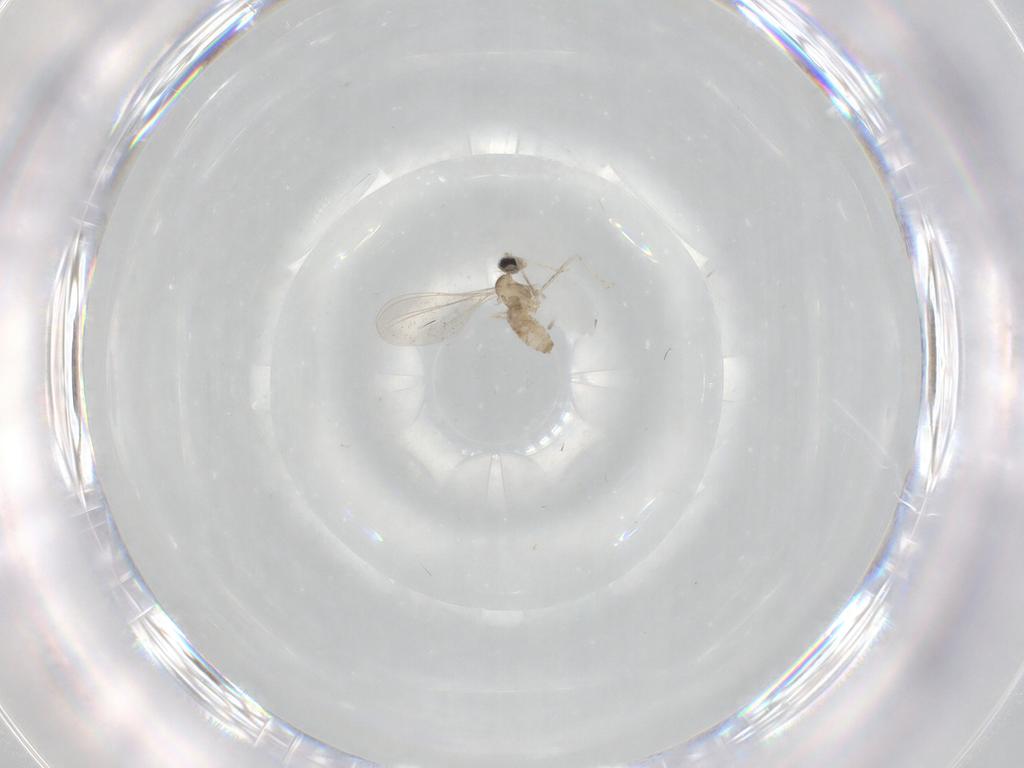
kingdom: Animalia
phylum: Arthropoda
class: Insecta
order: Diptera
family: Cecidomyiidae
